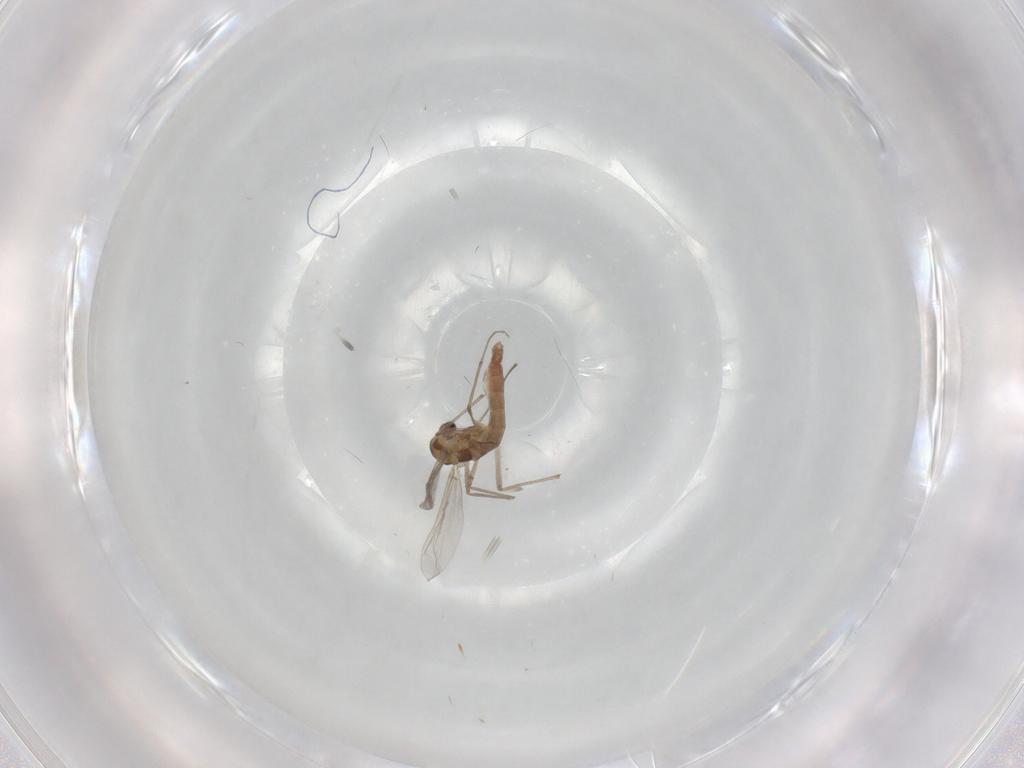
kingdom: Animalia
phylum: Arthropoda
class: Insecta
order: Diptera
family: Chironomidae
